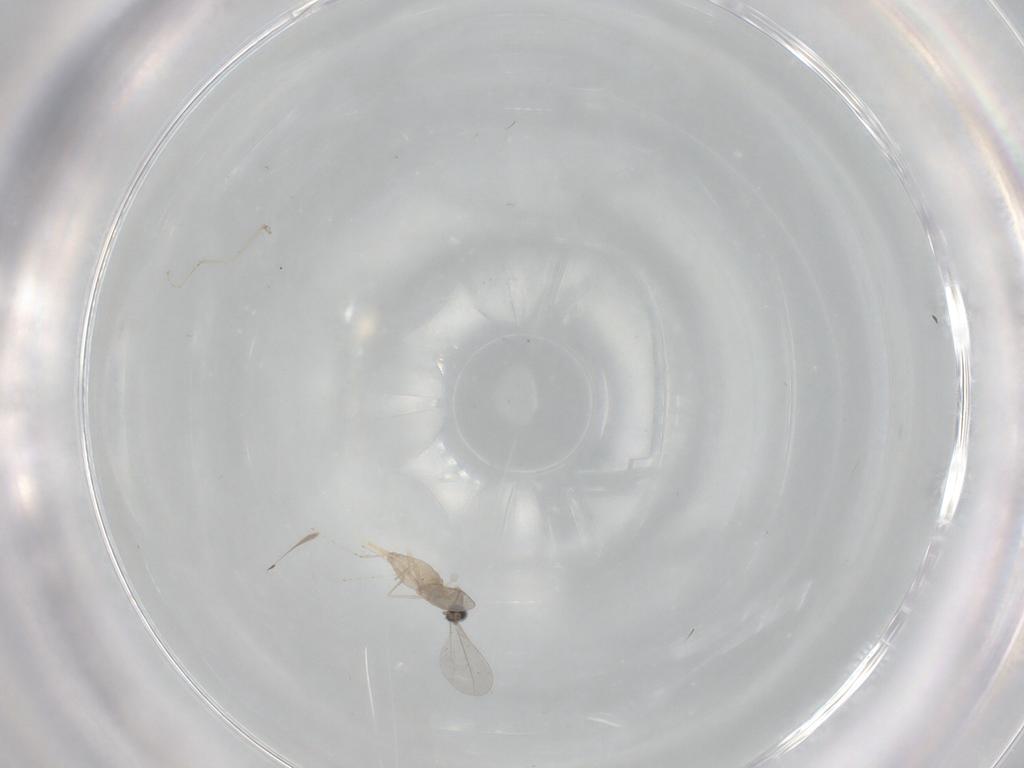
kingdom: Animalia
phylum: Arthropoda
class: Insecta
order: Diptera
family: Cecidomyiidae
